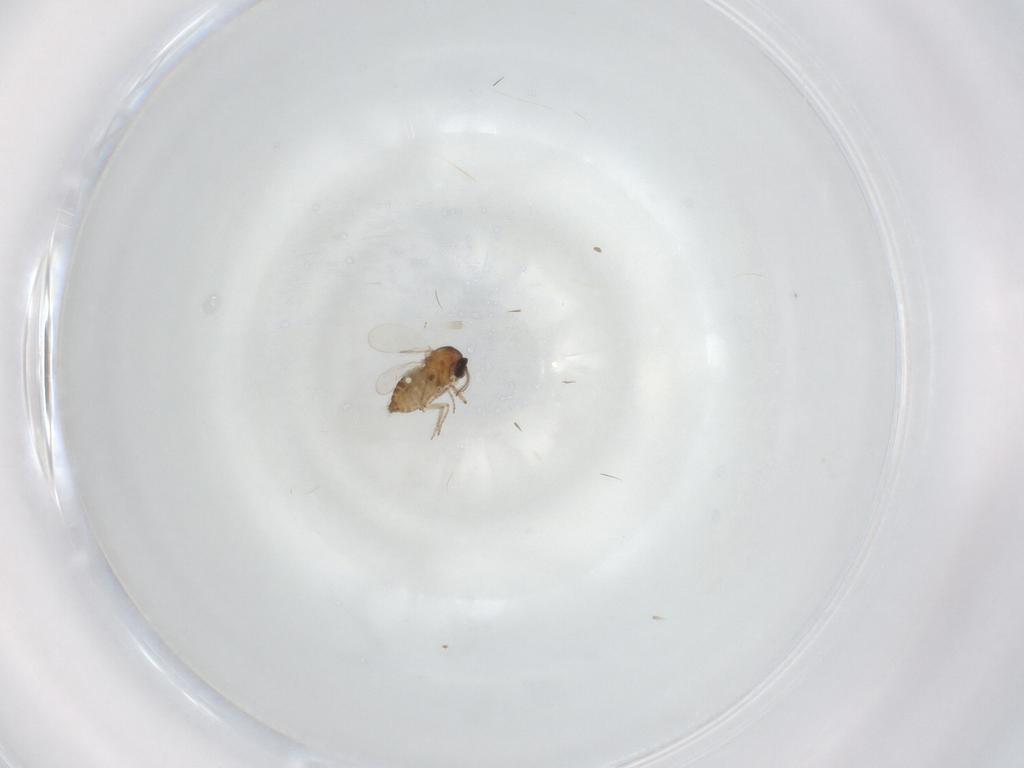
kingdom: Animalia
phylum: Arthropoda
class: Insecta
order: Diptera
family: Ceratopogonidae
